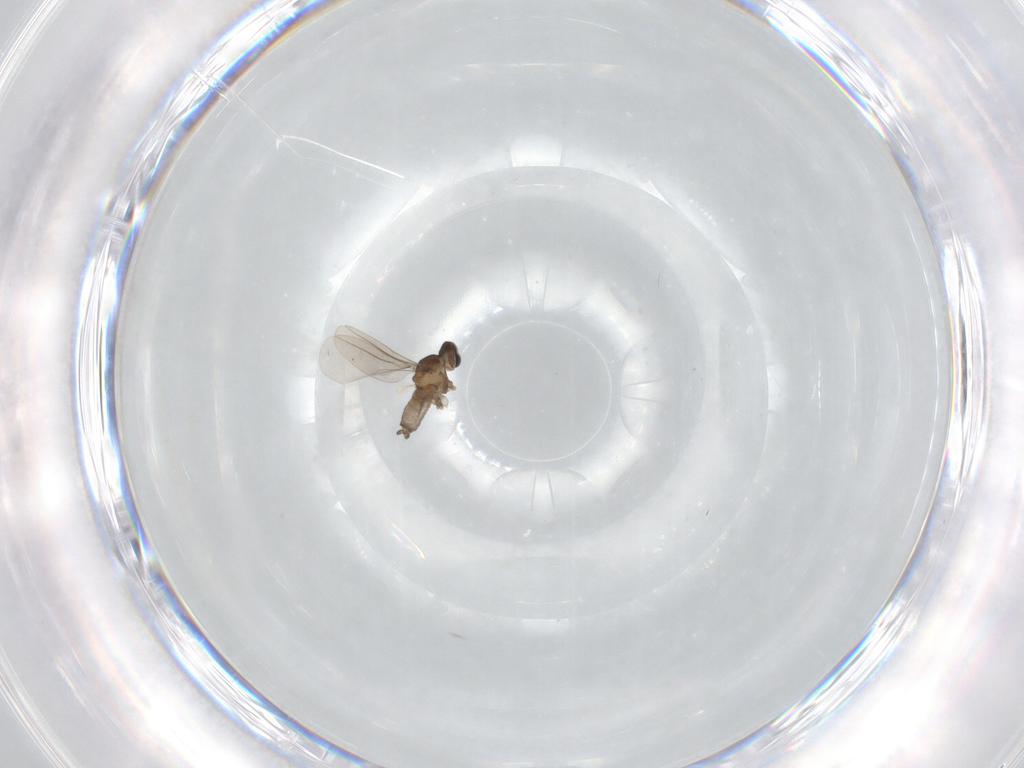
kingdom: Animalia
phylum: Arthropoda
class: Insecta
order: Diptera
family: Cecidomyiidae
